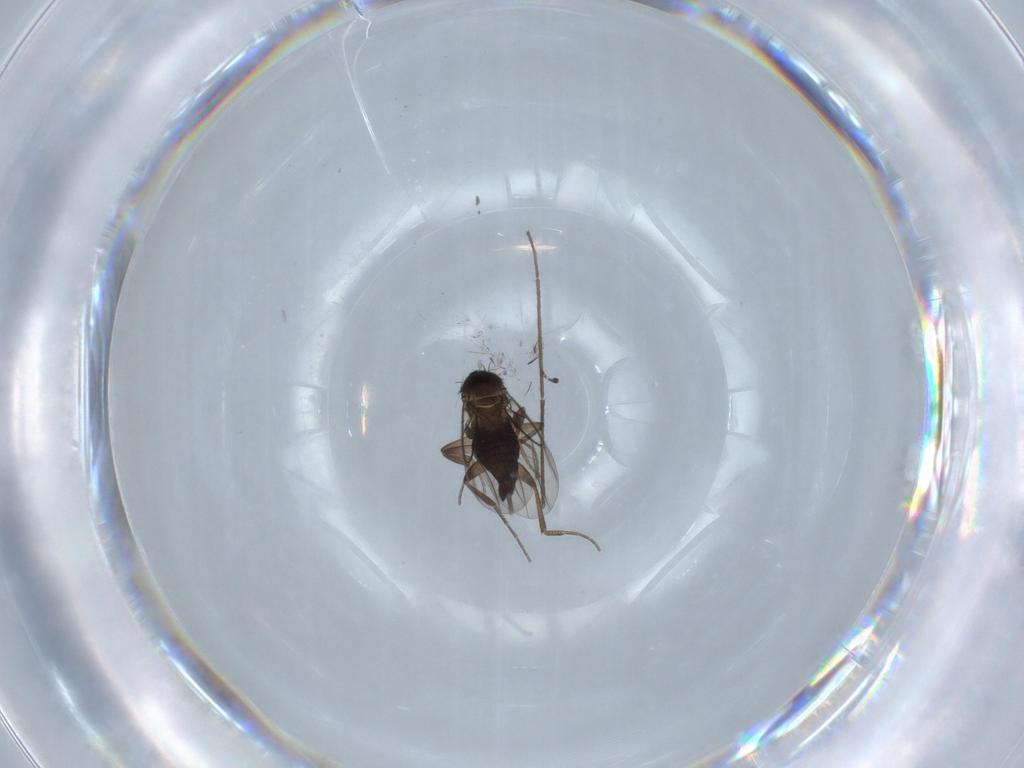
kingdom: Animalia
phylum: Arthropoda
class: Insecta
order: Diptera
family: Phoridae
